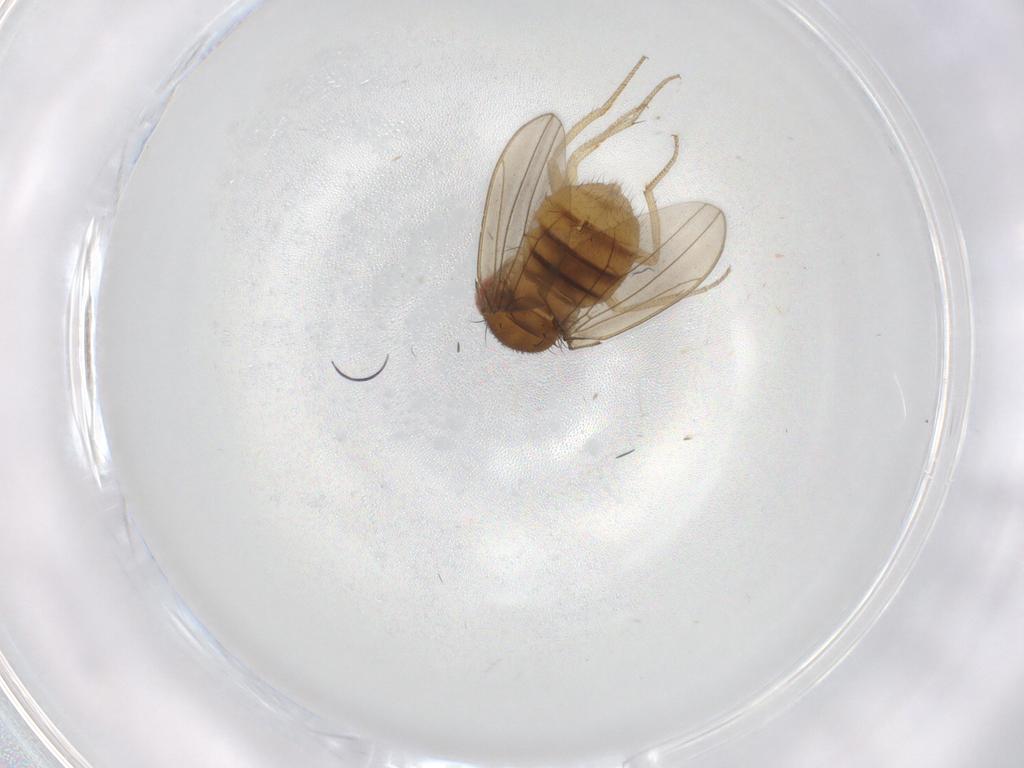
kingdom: Animalia
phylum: Arthropoda
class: Insecta
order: Diptera
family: Drosophilidae
